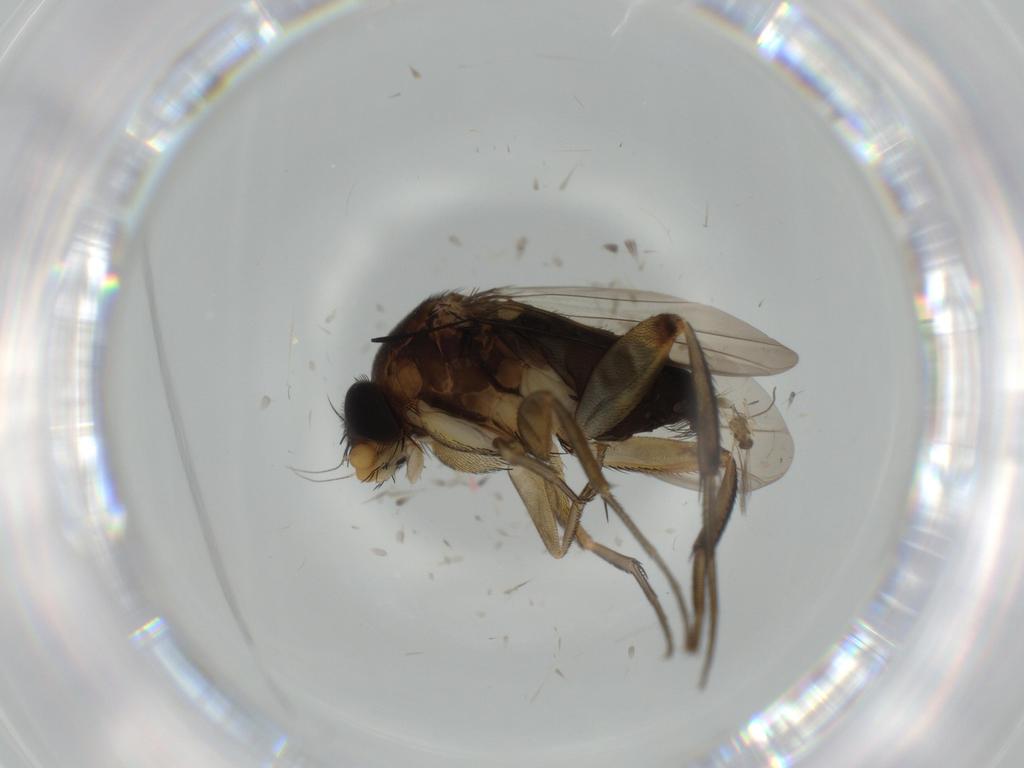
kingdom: Animalia
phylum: Arthropoda
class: Insecta
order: Diptera
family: Phoridae
